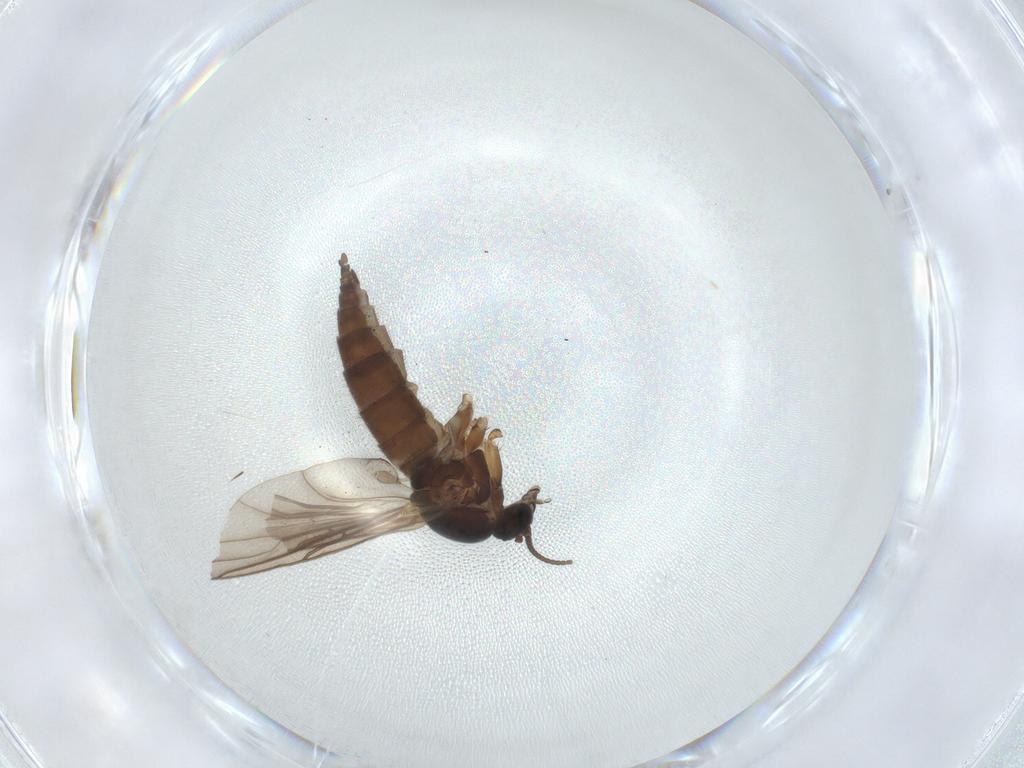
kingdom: Animalia
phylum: Arthropoda
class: Insecta
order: Diptera
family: Sciaridae
